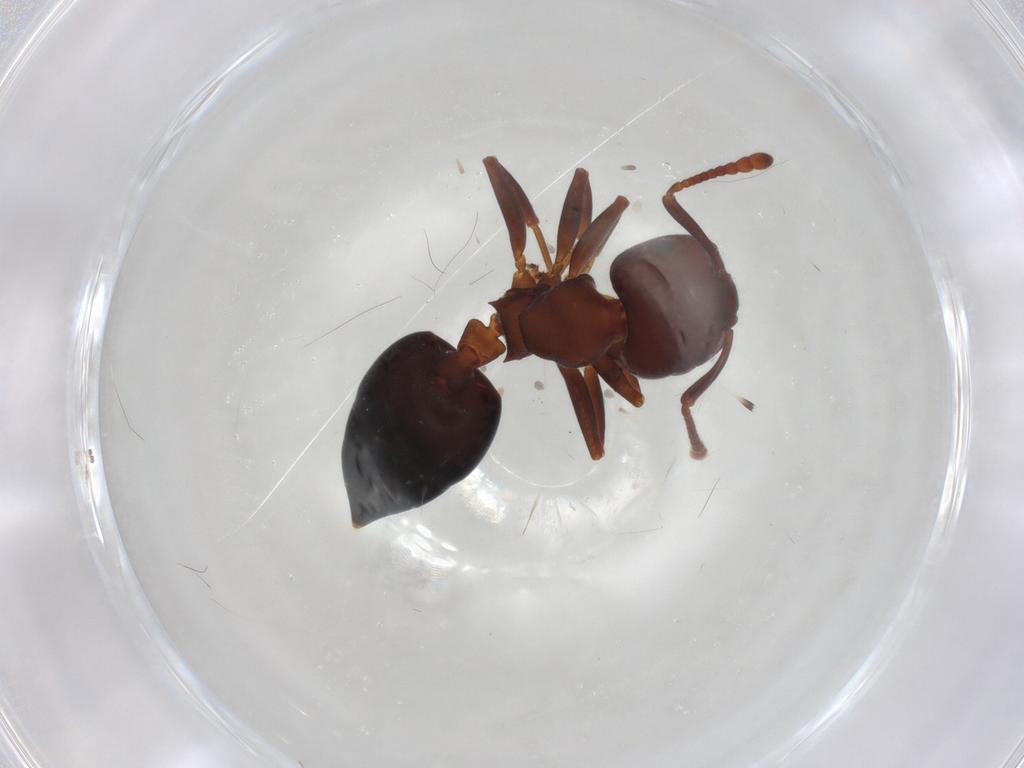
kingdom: Animalia
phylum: Arthropoda
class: Insecta
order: Hymenoptera
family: Formicidae
